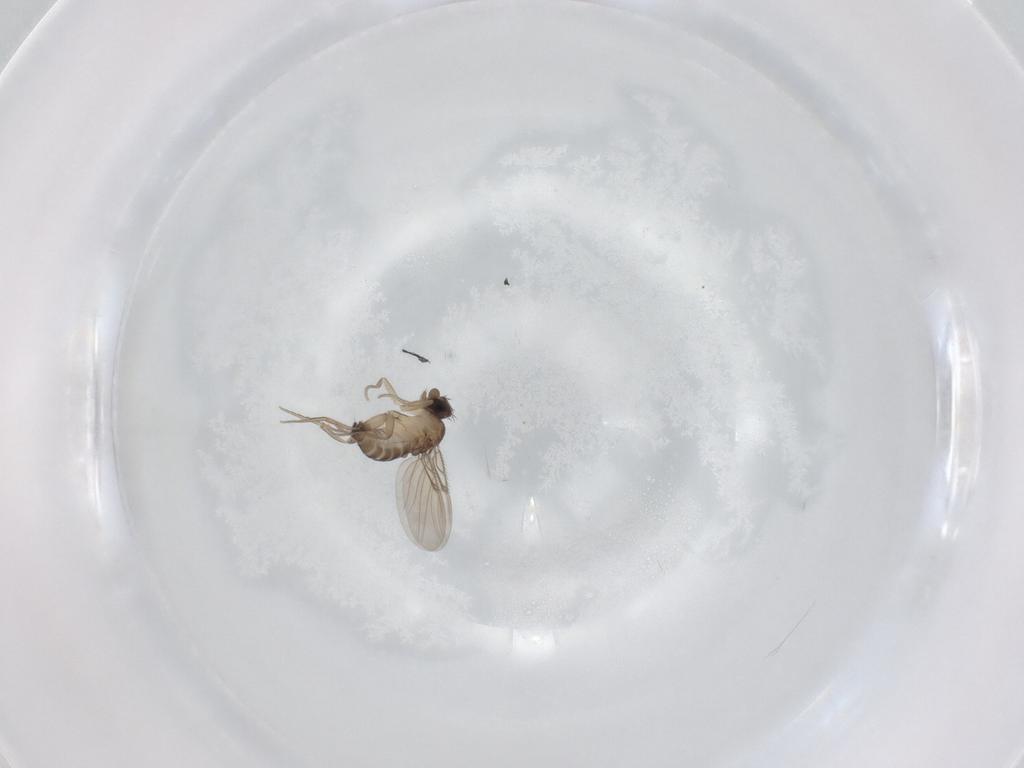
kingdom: Animalia
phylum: Arthropoda
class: Insecta
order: Diptera
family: Phoridae
